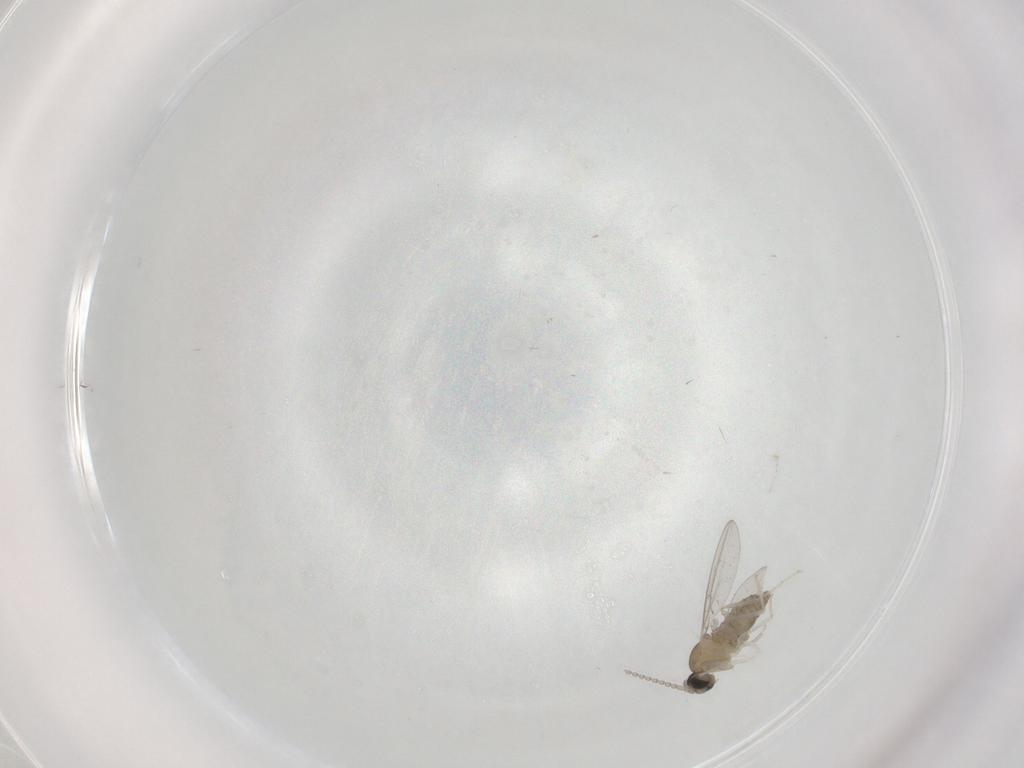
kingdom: Animalia
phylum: Arthropoda
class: Insecta
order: Diptera
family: Cecidomyiidae
